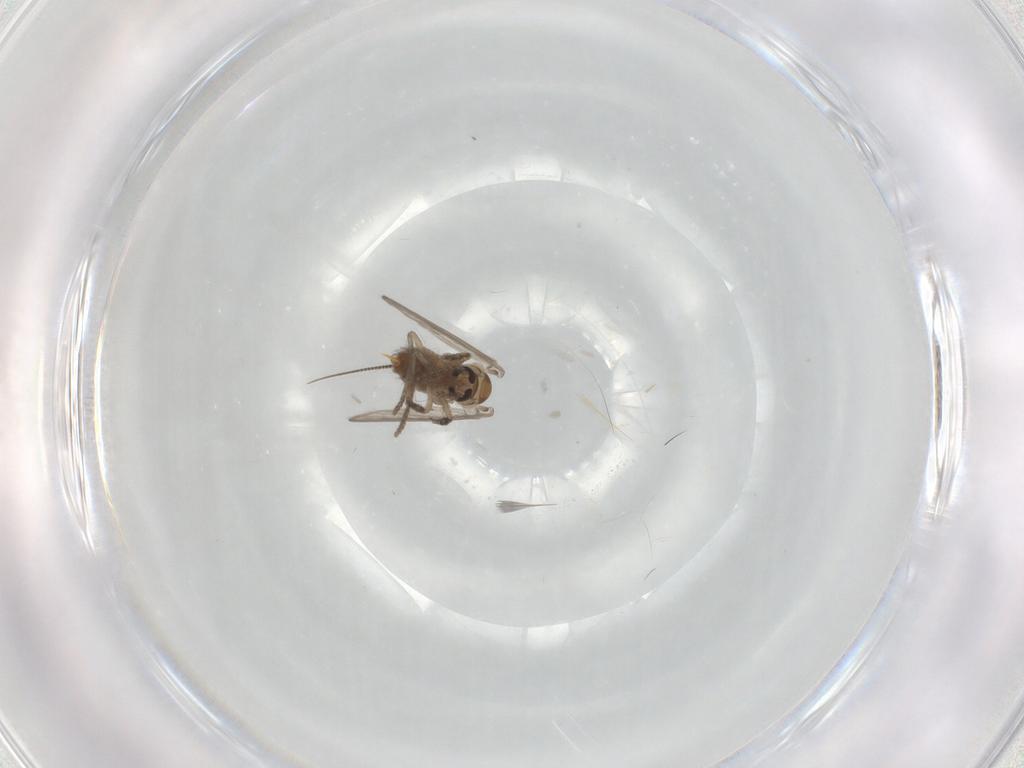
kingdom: Animalia
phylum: Arthropoda
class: Insecta
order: Diptera
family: Psychodidae
